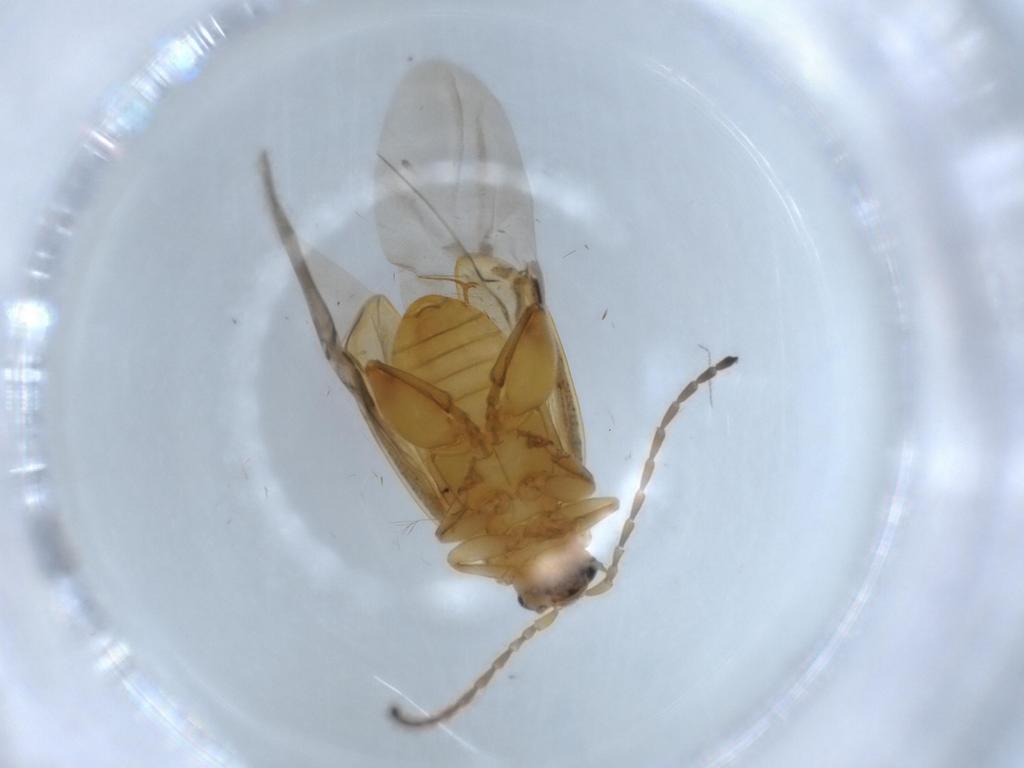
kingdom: Animalia
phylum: Arthropoda
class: Insecta
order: Coleoptera
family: Chrysomelidae
